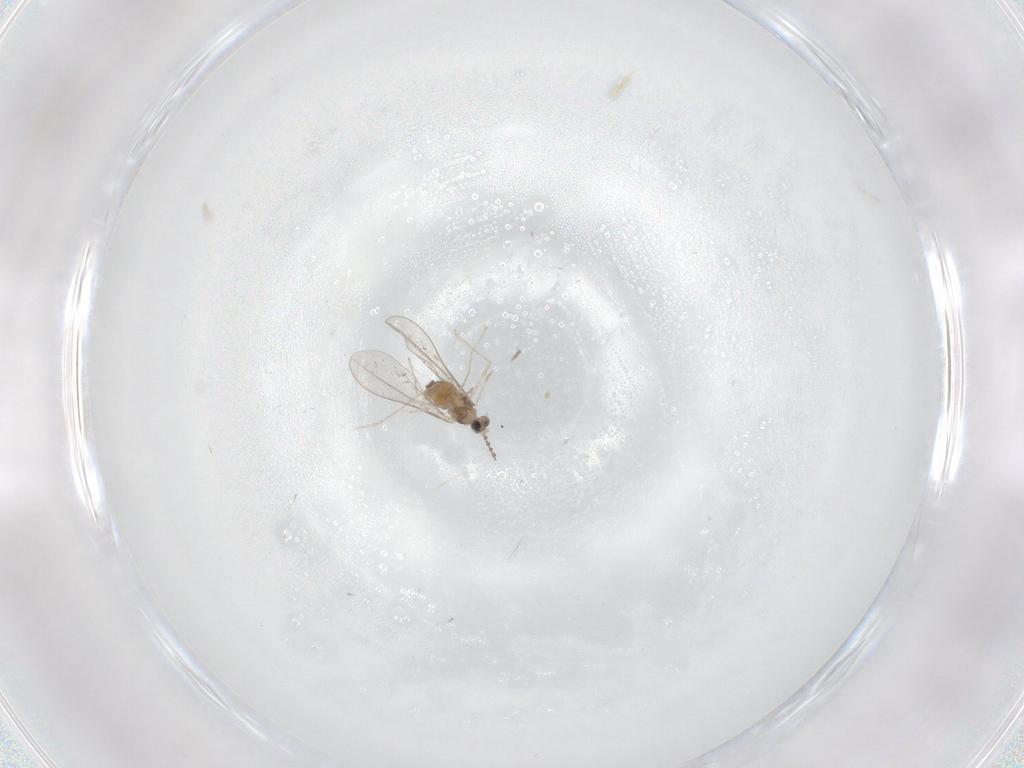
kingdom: Animalia
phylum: Arthropoda
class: Insecta
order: Diptera
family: Cecidomyiidae
